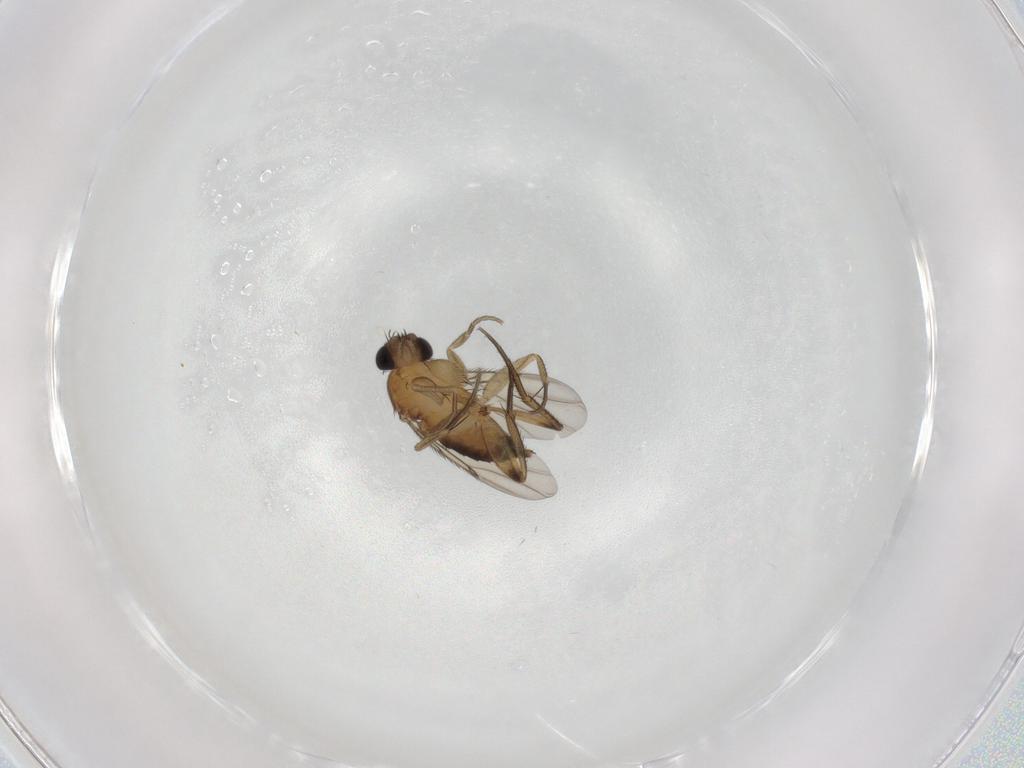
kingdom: Animalia
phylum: Arthropoda
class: Insecta
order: Diptera
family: Phoridae
